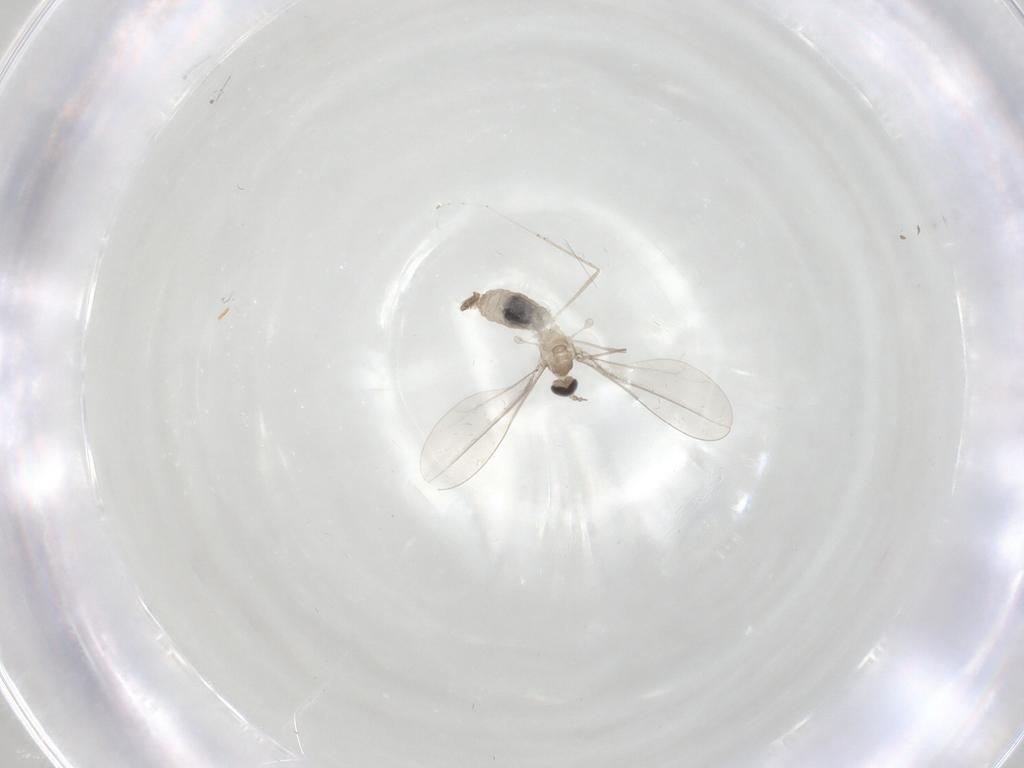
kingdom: Animalia
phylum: Arthropoda
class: Insecta
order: Diptera
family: Cecidomyiidae
